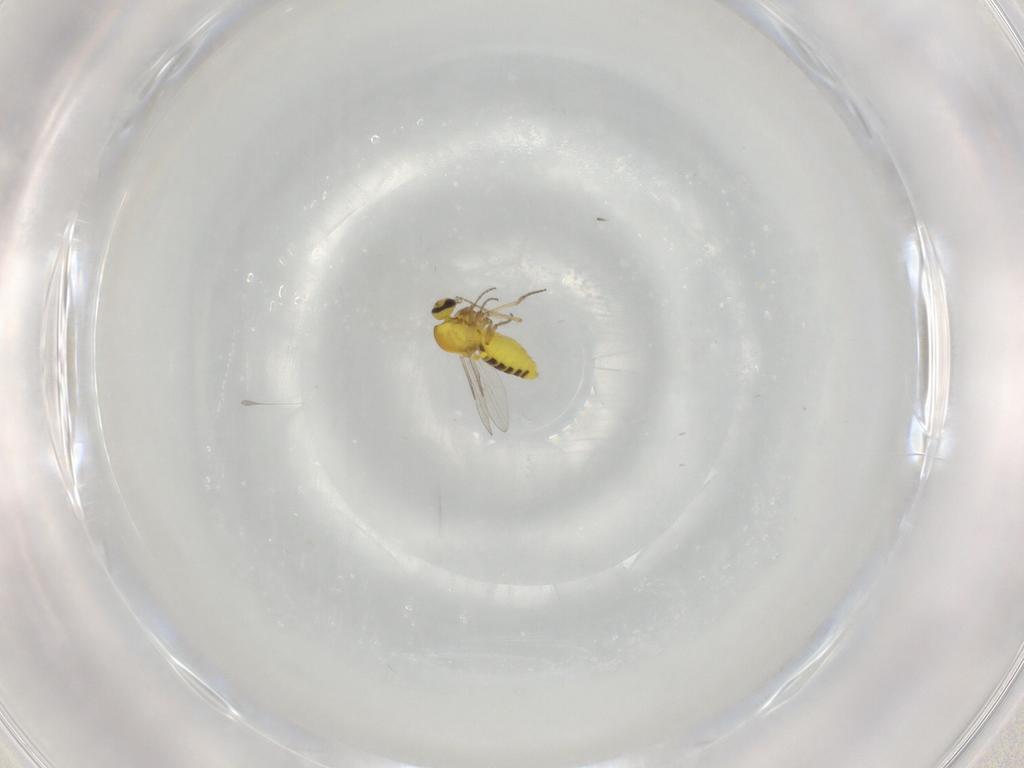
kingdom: Animalia
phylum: Arthropoda
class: Insecta
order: Diptera
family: Ceratopogonidae
